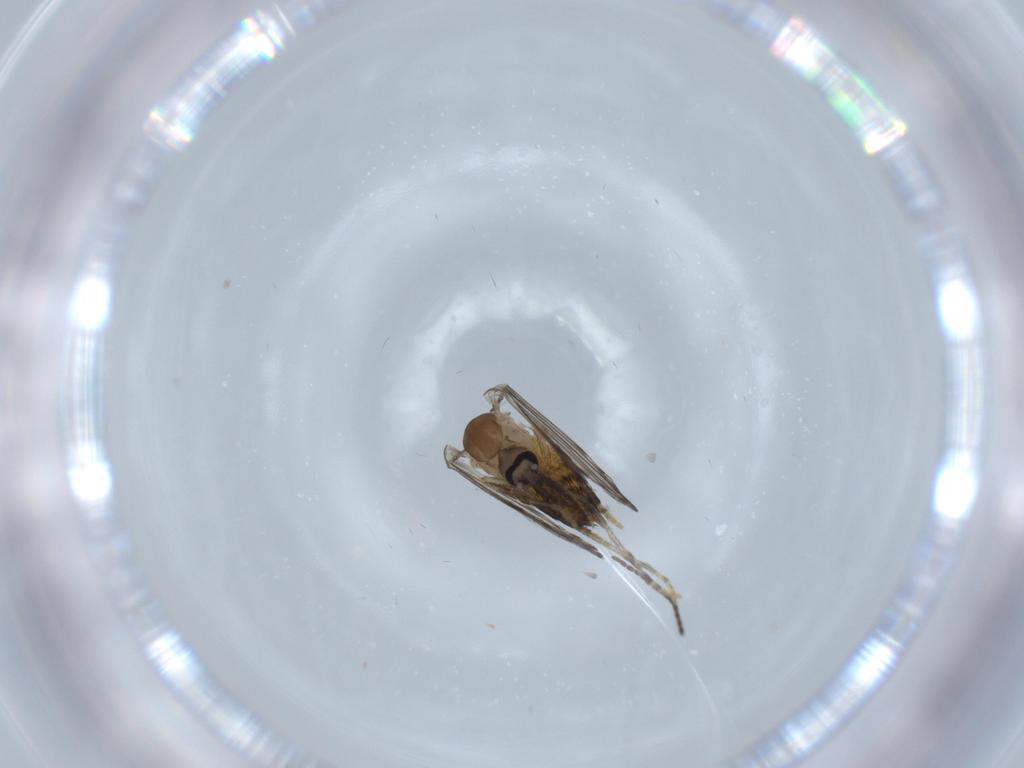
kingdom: Animalia
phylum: Arthropoda
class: Insecta
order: Diptera
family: Psychodidae
